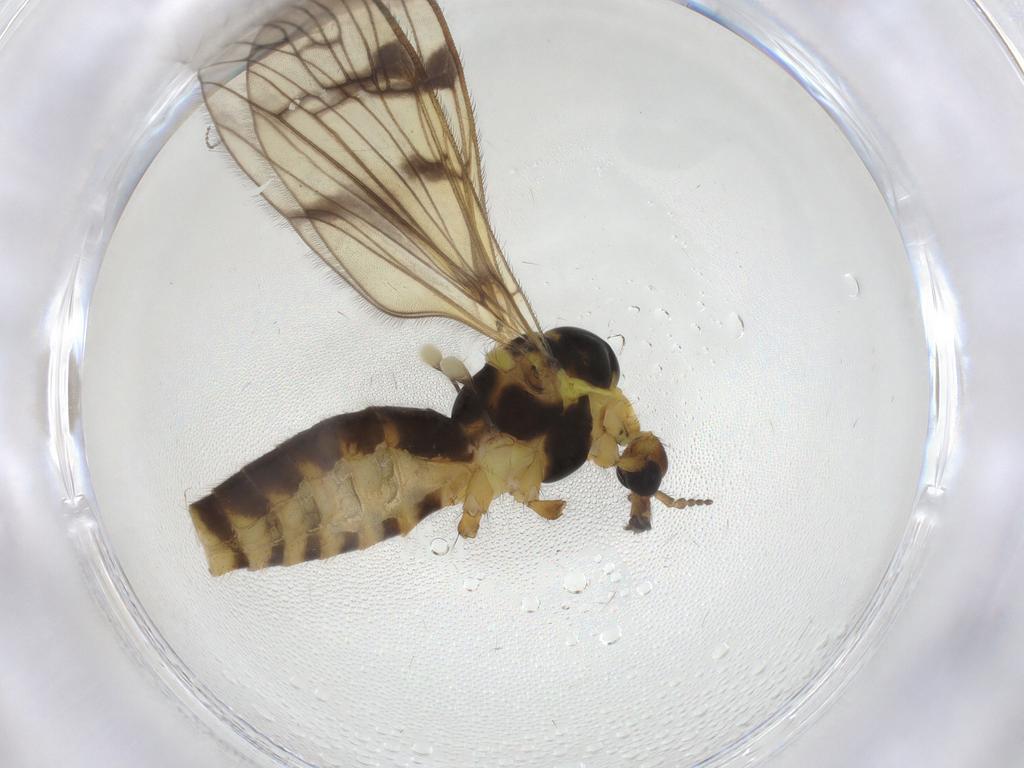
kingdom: Animalia
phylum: Arthropoda
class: Insecta
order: Diptera
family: Limoniidae
